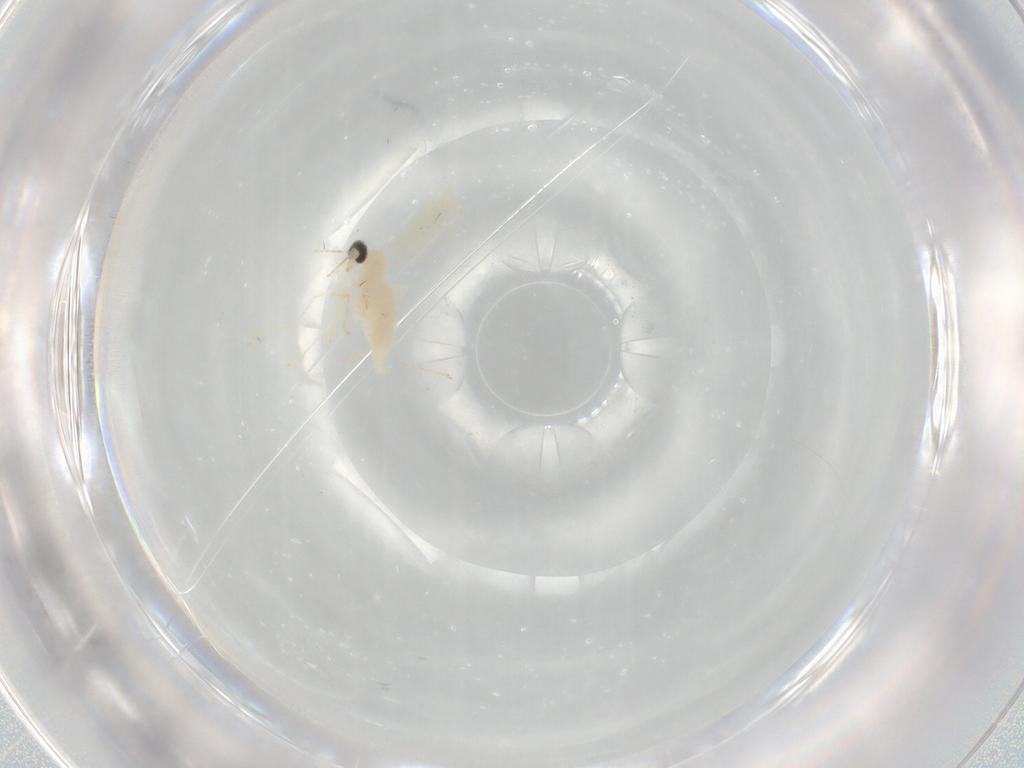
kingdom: Animalia
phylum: Arthropoda
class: Insecta
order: Diptera
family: Cecidomyiidae
